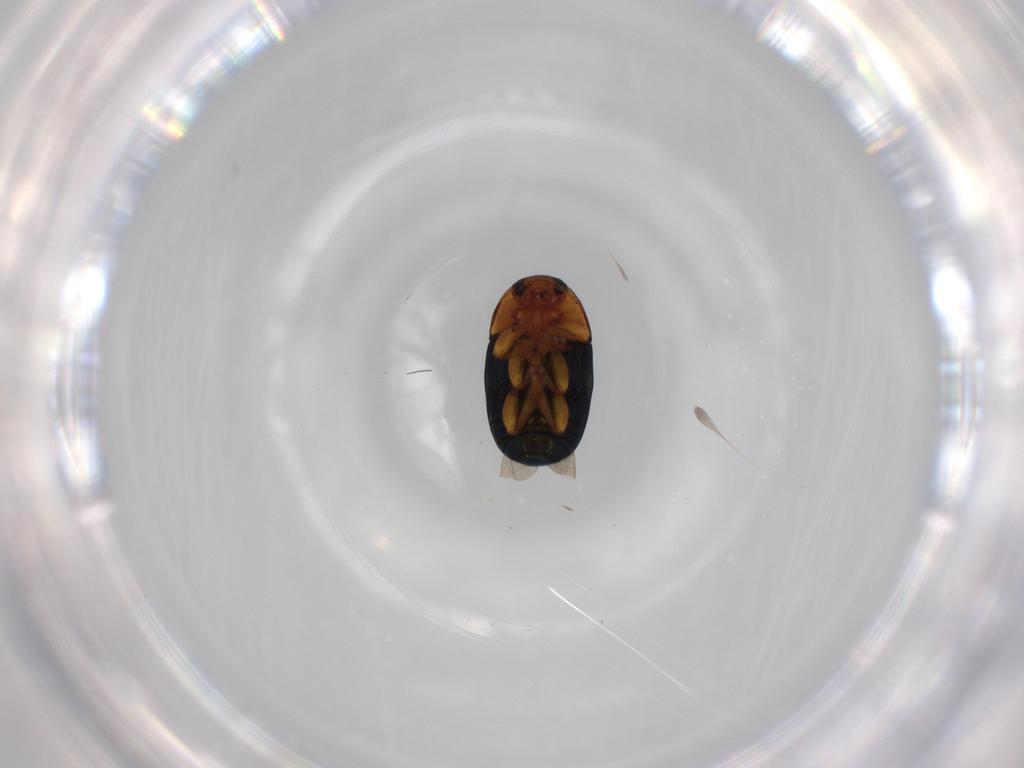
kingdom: Animalia
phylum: Arthropoda
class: Insecta
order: Coleoptera
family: Chrysomelidae
